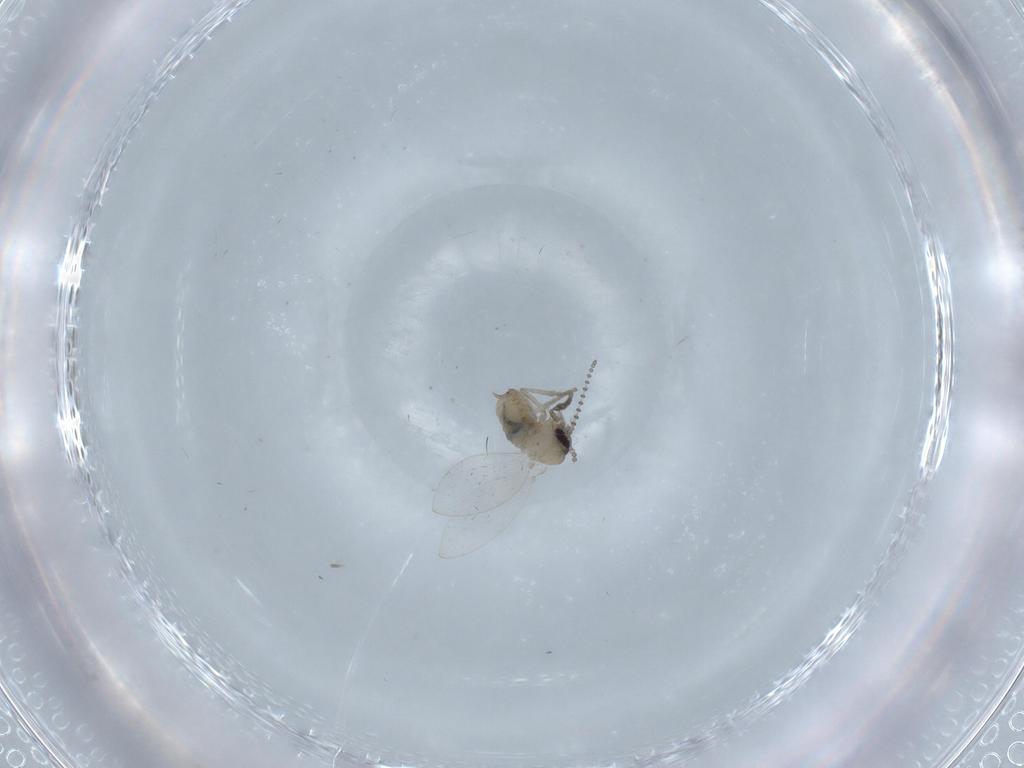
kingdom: Animalia
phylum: Arthropoda
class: Insecta
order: Diptera
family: Psychodidae
